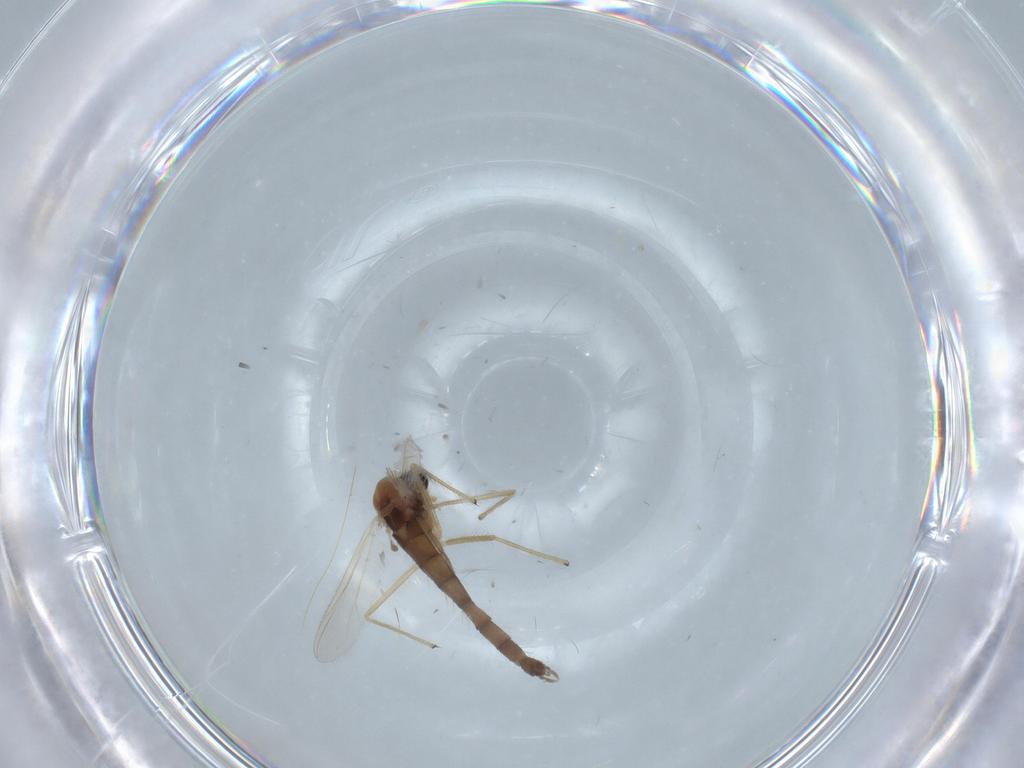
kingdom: Animalia
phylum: Arthropoda
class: Insecta
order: Diptera
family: Chironomidae
